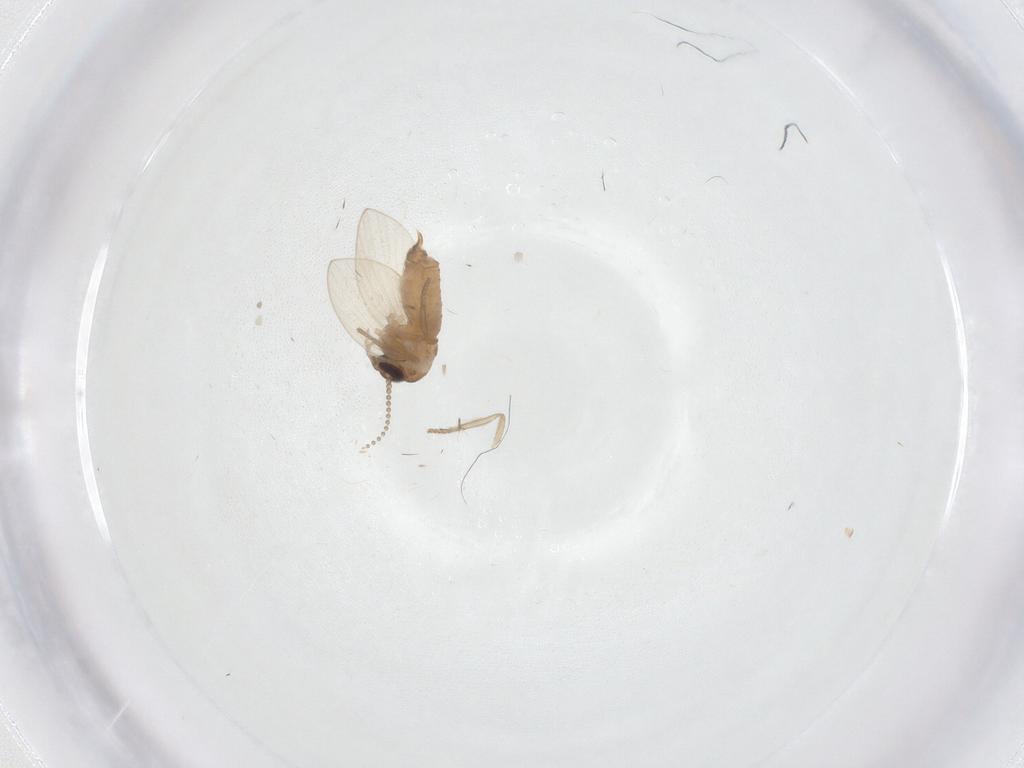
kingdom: Animalia
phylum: Arthropoda
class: Insecta
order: Diptera
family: Psychodidae
